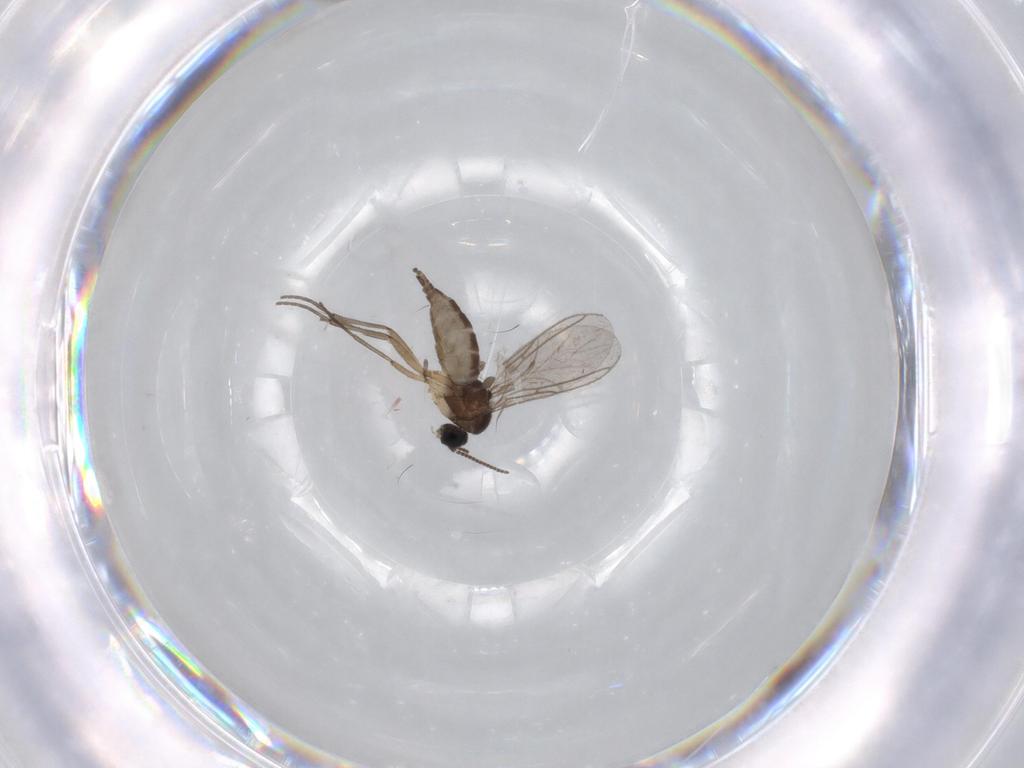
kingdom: Animalia
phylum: Arthropoda
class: Insecta
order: Diptera
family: Sciaridae
